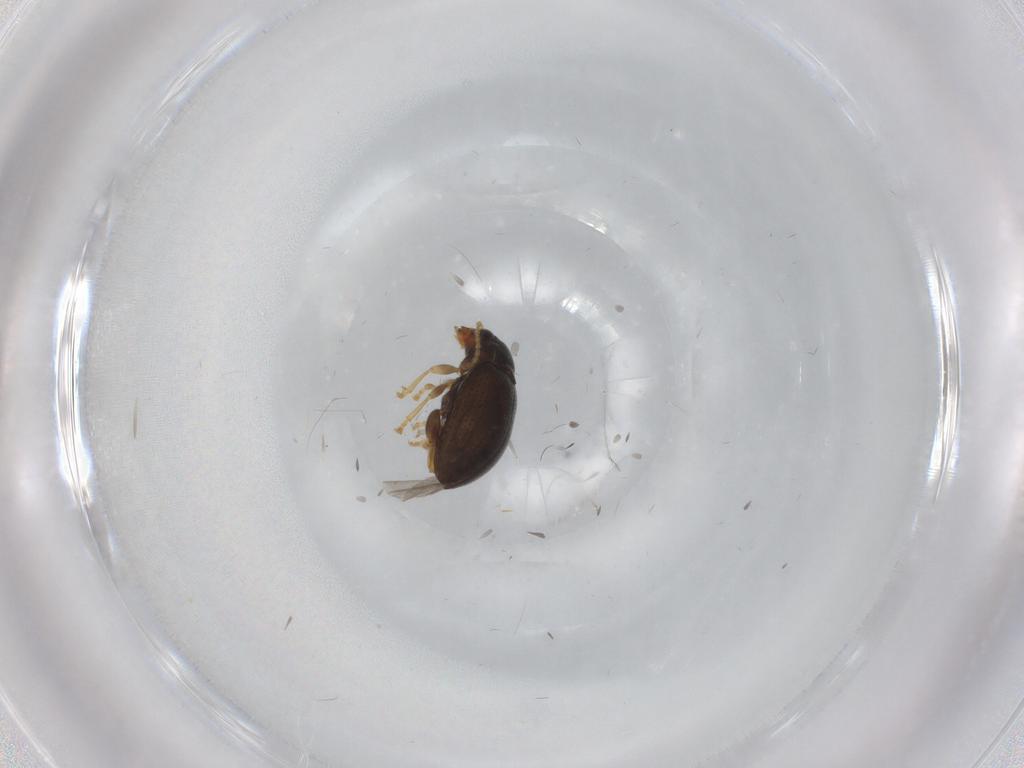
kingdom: Animalia
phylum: Arthropoda
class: Insecta
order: Coleoptera
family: Chrysomelidae
